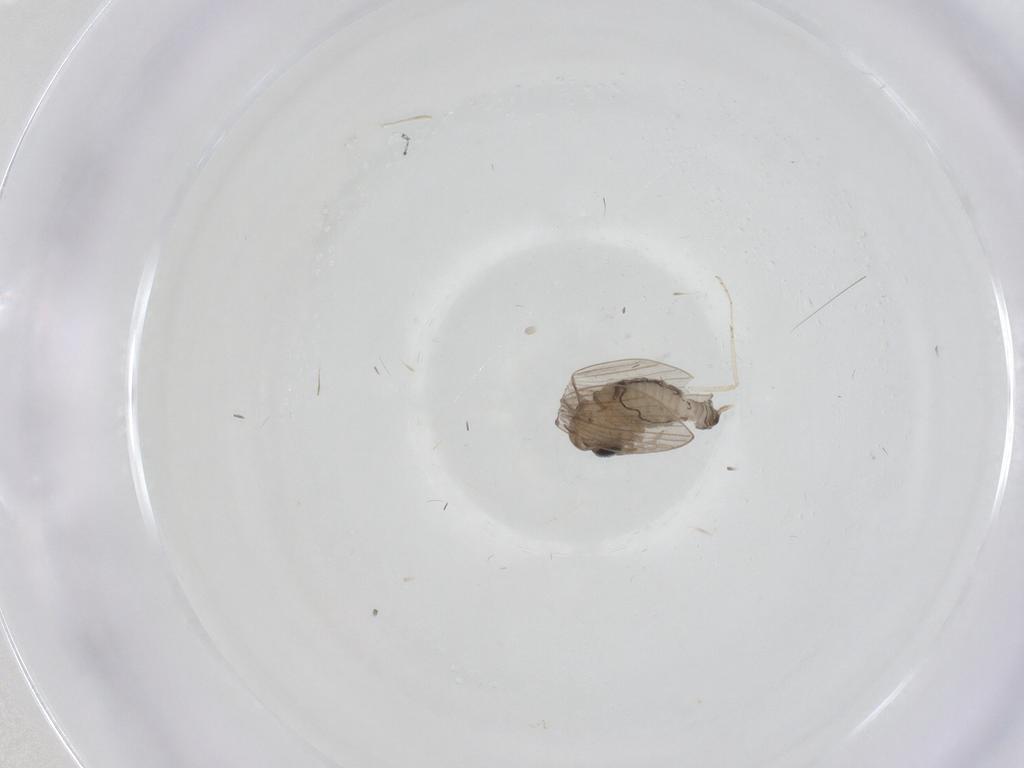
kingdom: Animalia
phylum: Arthropoda
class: Insecta
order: Diptera
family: Psychodidae
